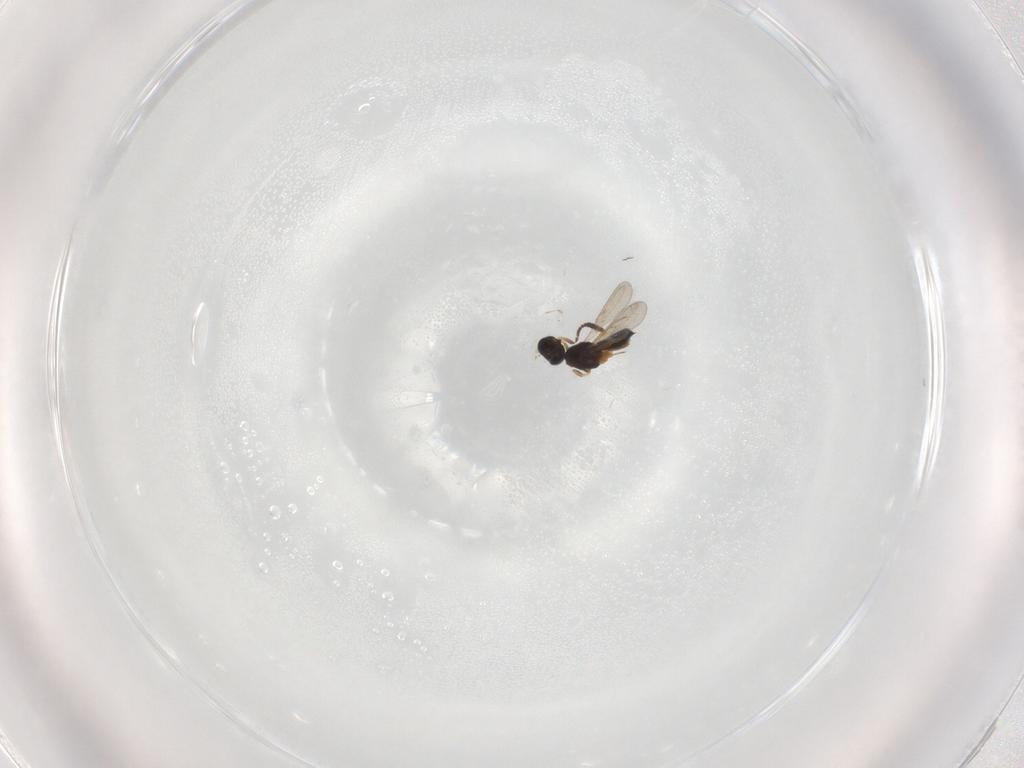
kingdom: Animalia
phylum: Arthropoda
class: Insecta
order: Hymenoptera
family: Scelionidae
